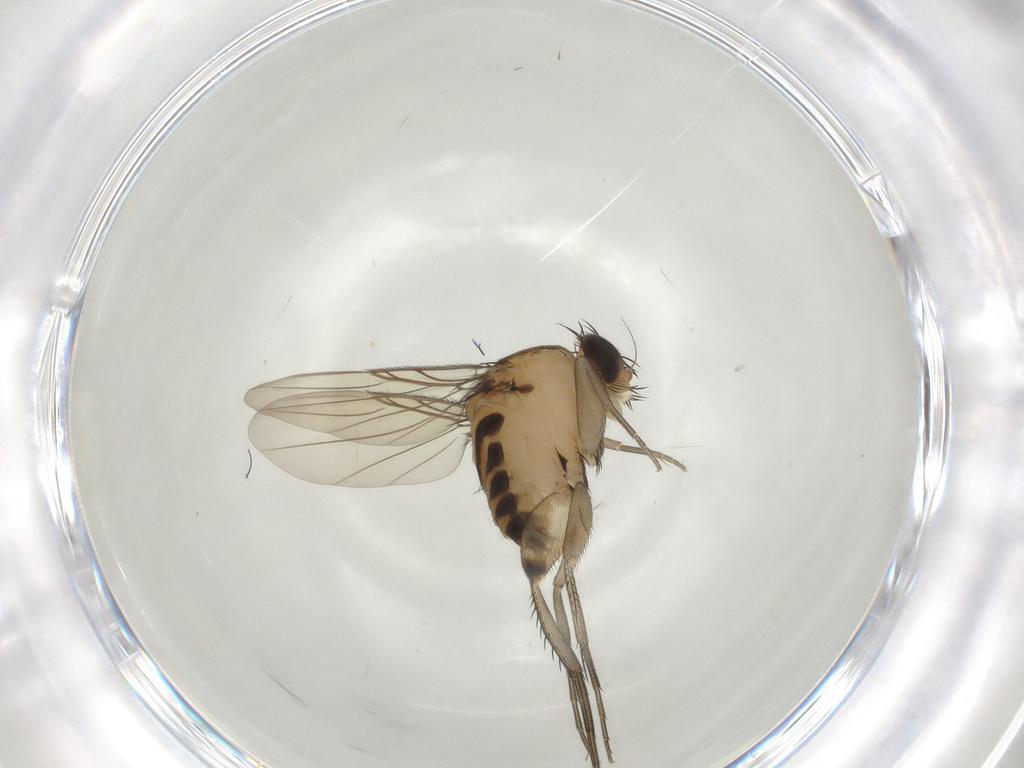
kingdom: Animalia
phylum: Arthropoda
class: Insecta
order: Diptera
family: Phoridae
